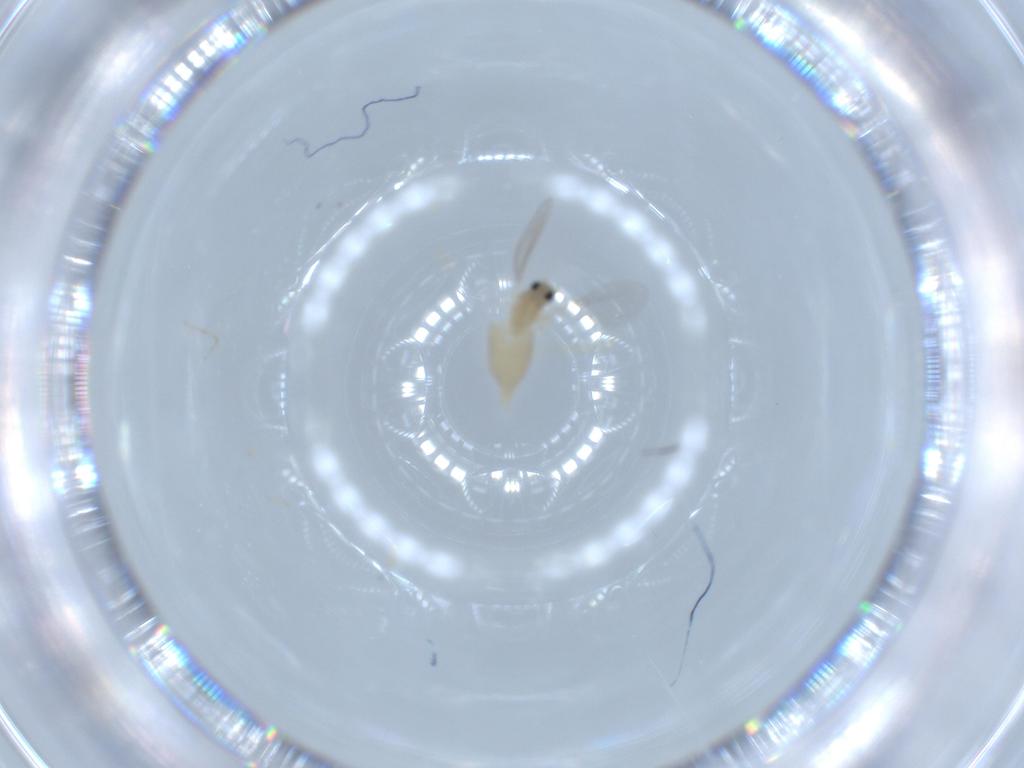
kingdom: Animalia
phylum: Arthropoda
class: Insecta
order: Diptera
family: Cecidomyiidae
